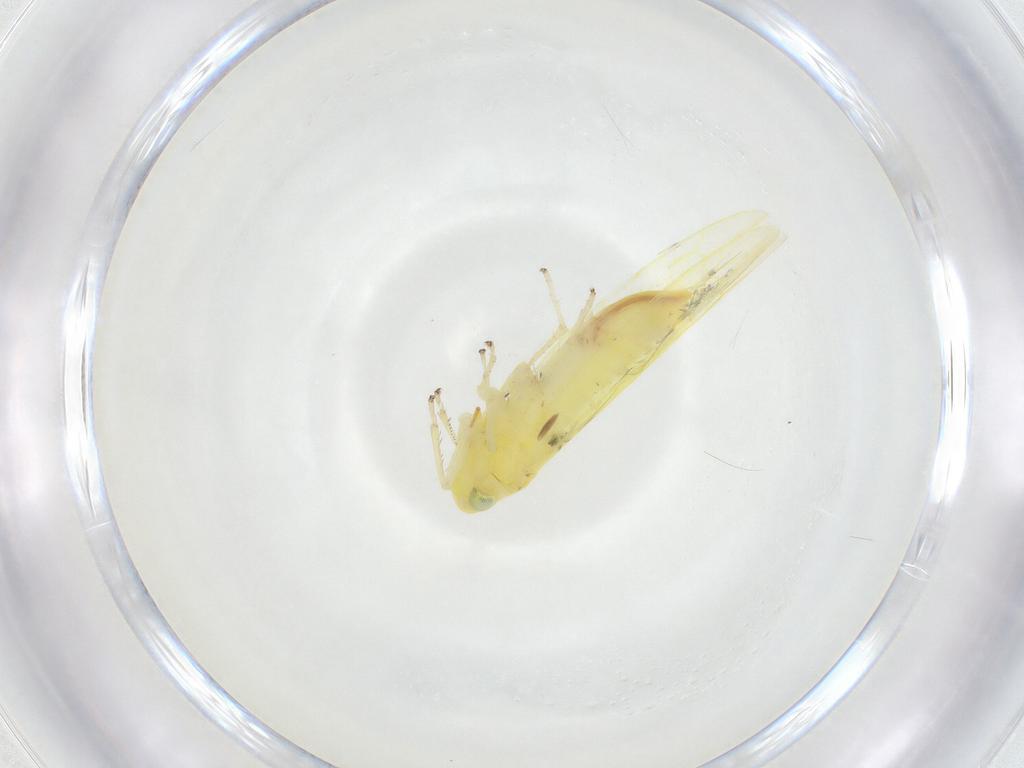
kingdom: Animalia
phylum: Arthropoda
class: Insecta
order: Hemiptera
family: Cicadellidae
